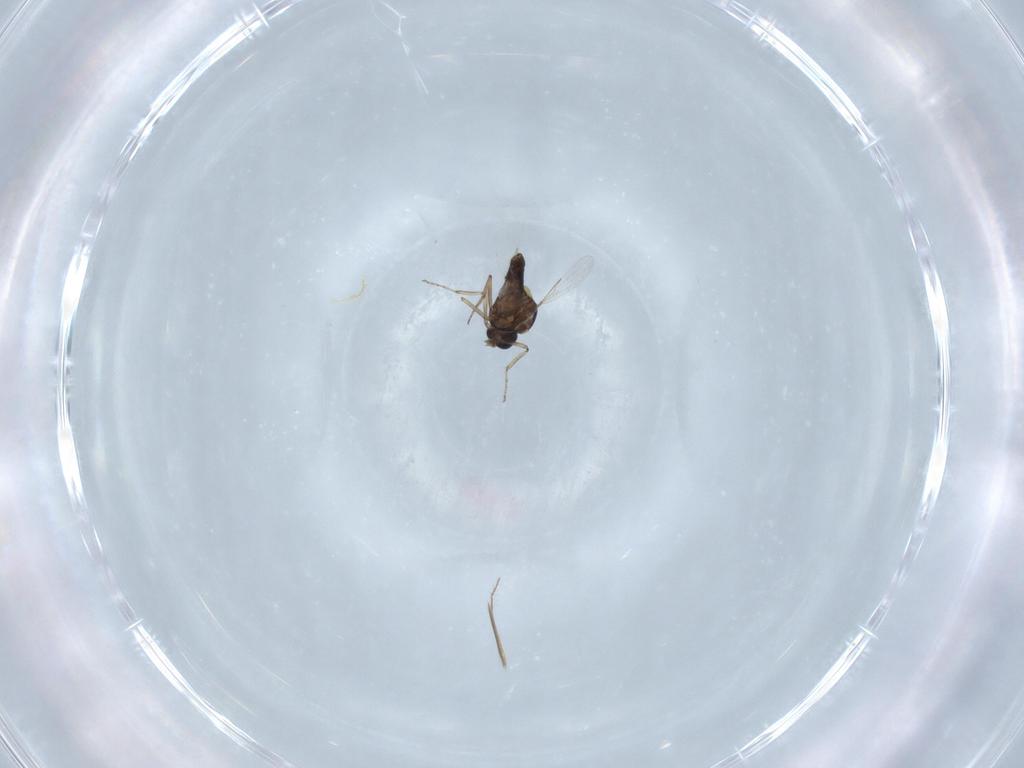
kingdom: Animalia
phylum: Arthropoda
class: Insecta
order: Diptera
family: Ceratopogonidae
